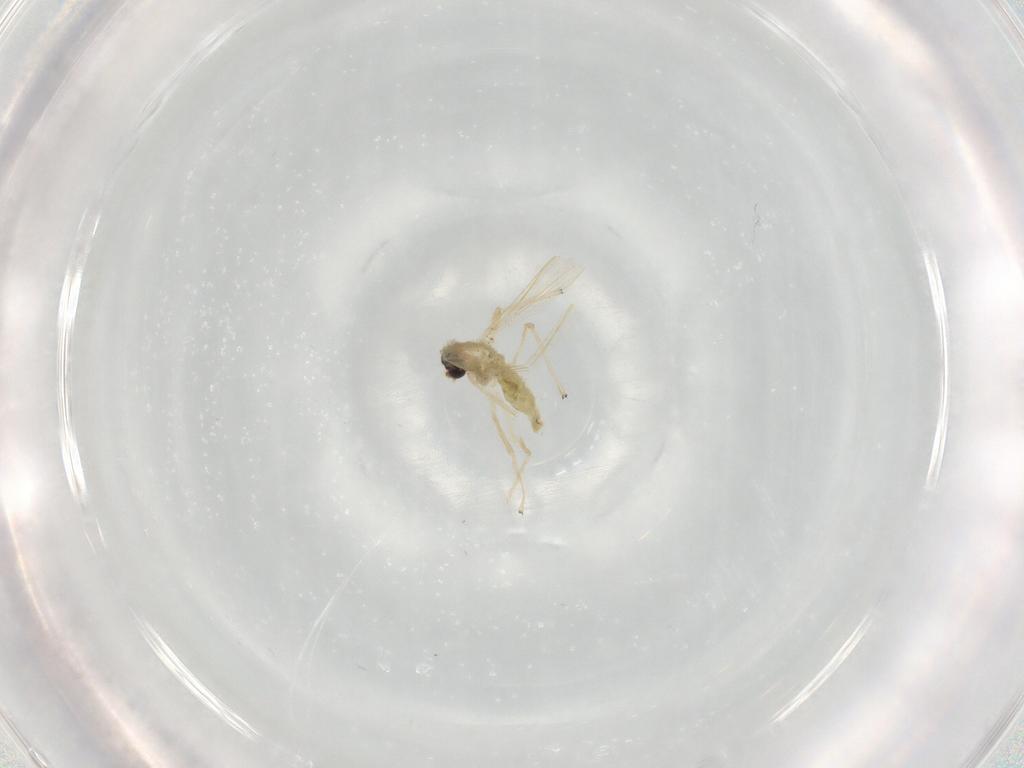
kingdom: Animalia
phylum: Arthropoda
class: Insecta
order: Diptera
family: Chironomidae
